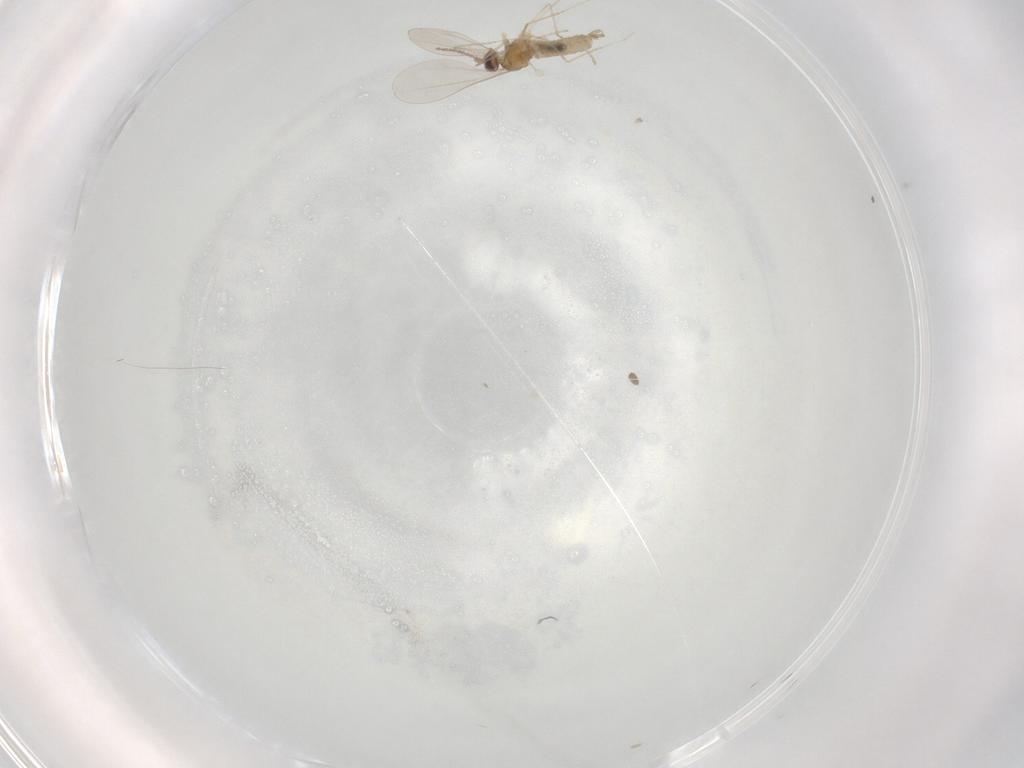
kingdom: Animalia
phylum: Arthropoda
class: Insecta
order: Diptera
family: Cecidomyiidae
